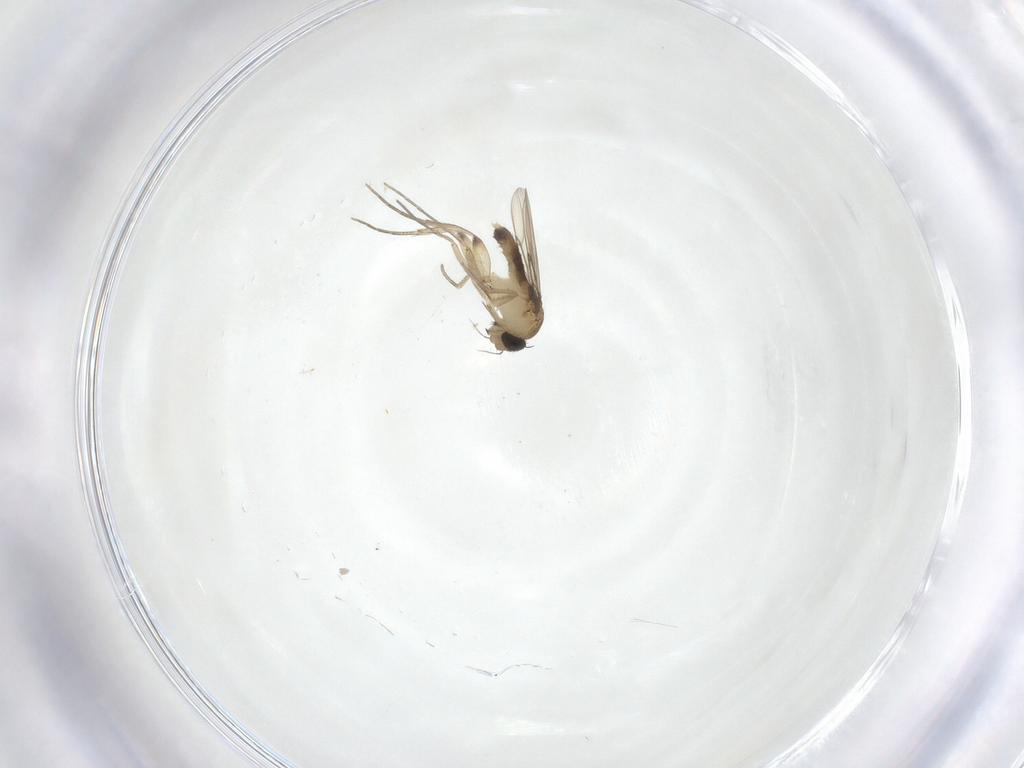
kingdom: Animalia
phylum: Arthropoda
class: Insecta
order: Diptera
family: Phoridae
